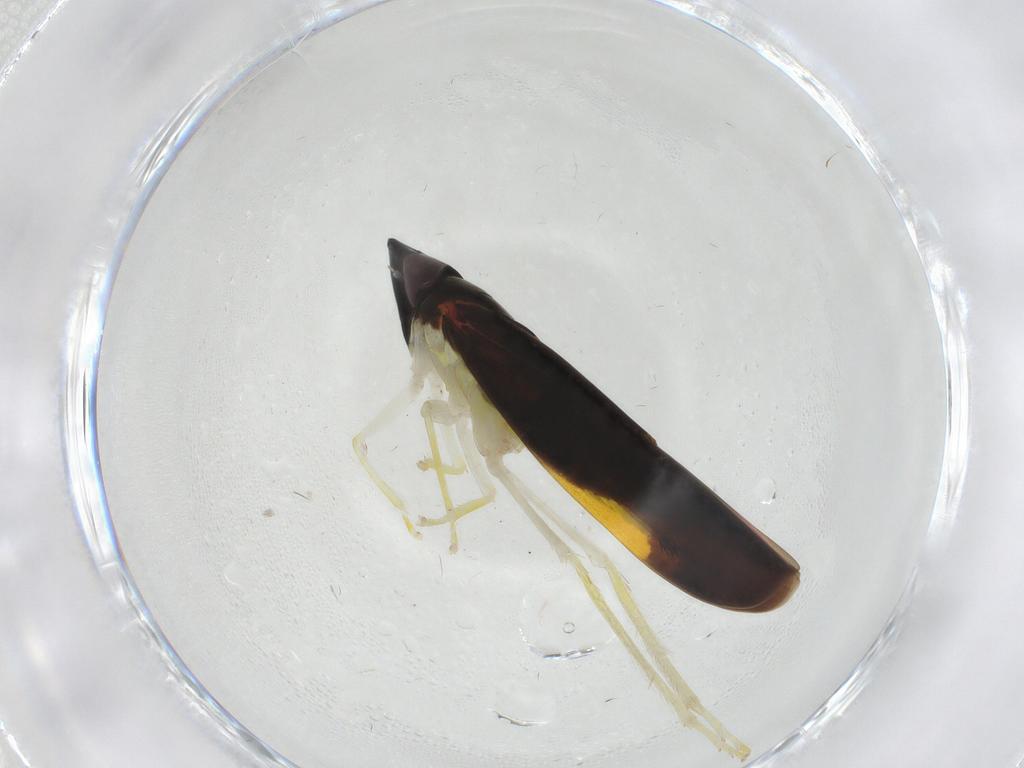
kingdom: Animalia
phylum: Arthropoda
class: Insecta
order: Hemiptera
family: Cicadellidae
